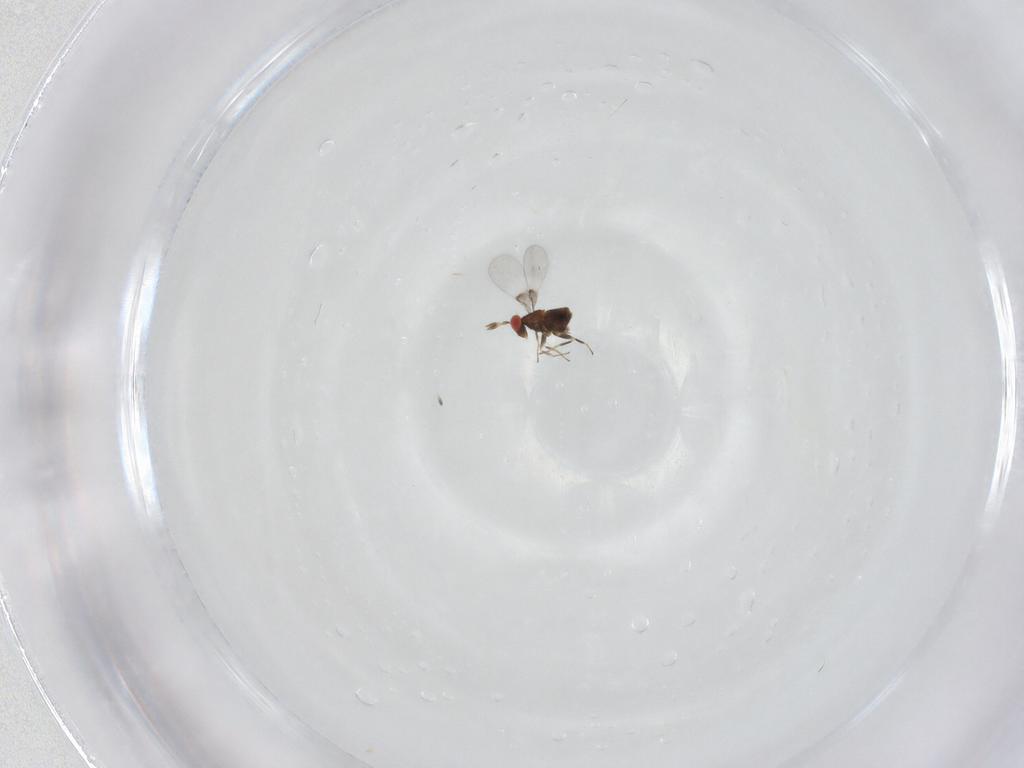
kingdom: Animalia
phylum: Arthropoda
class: Insecta
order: Hymenoptera
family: Trichogrammatidae
